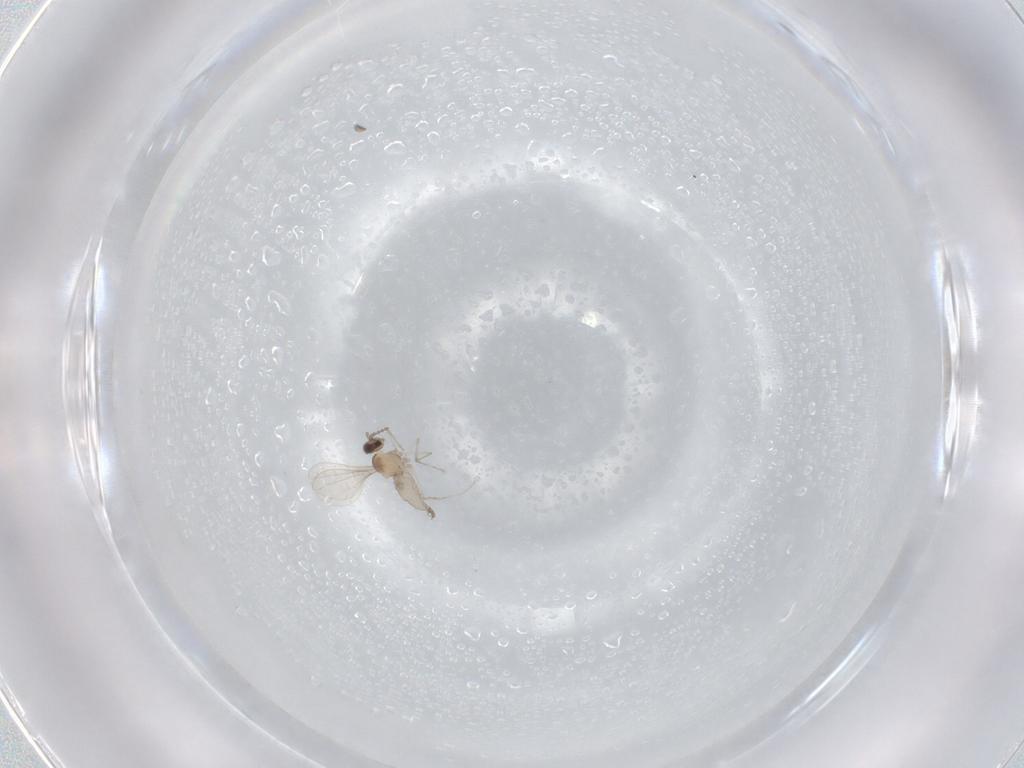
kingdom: Animalia
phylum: Arthropoda
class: Insecta
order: Diptera
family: Cecidomyiidae
